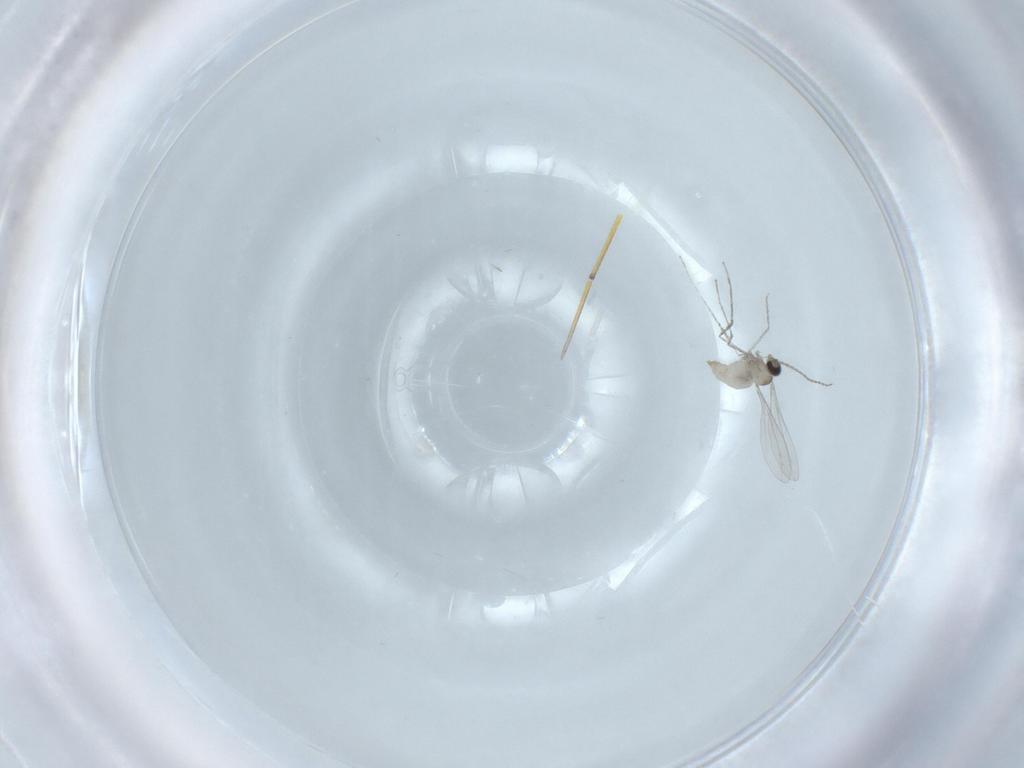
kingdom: Animalia
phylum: Arthropoda
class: Insecta
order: Diptera
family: Cecidomyiidae
